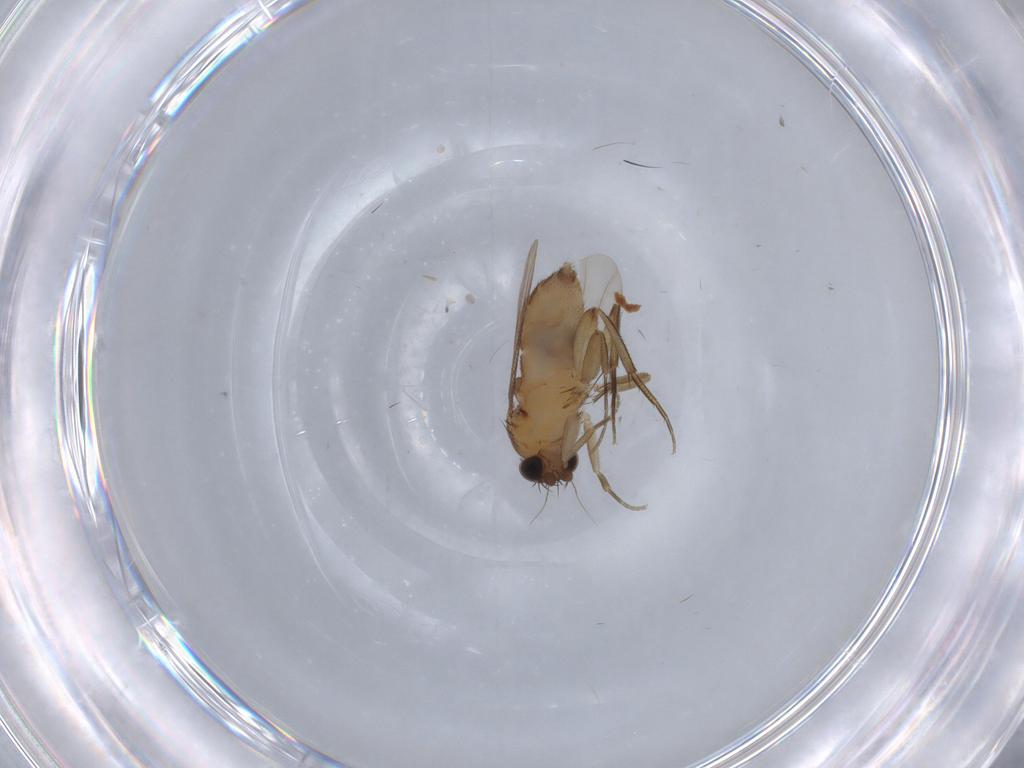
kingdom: Animalia
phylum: Arthropoda
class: Insecta
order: Diptera
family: Phoridae
